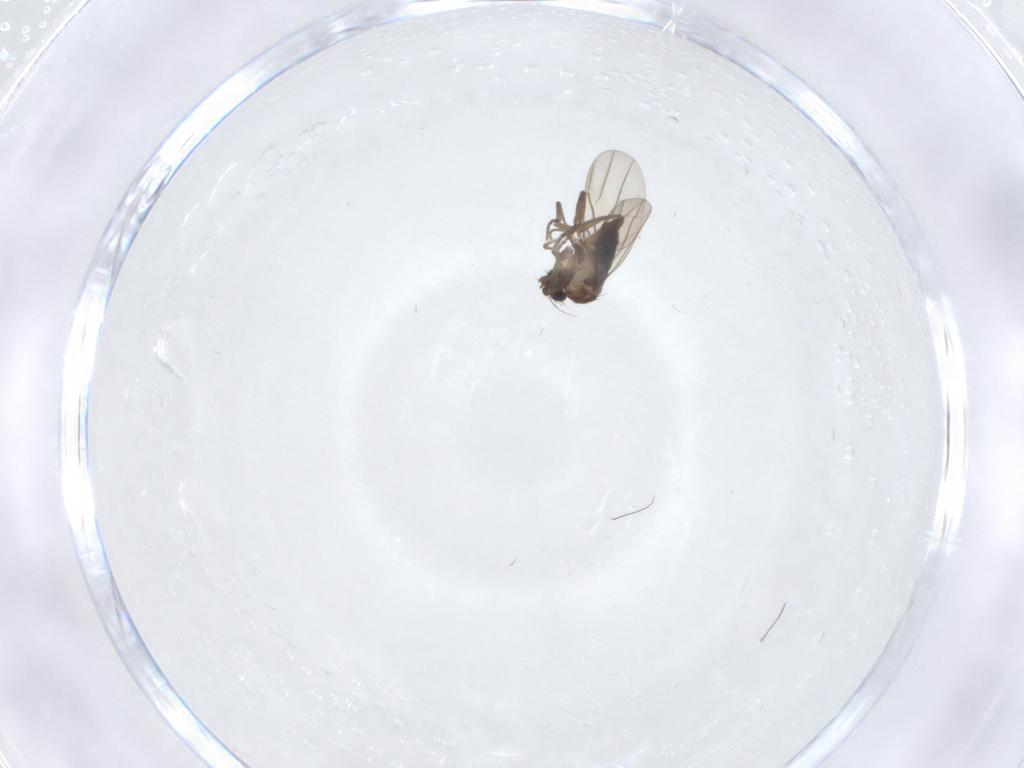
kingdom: Animalia
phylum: Arthropoda
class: Insecta
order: Diptera
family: Phoridae
